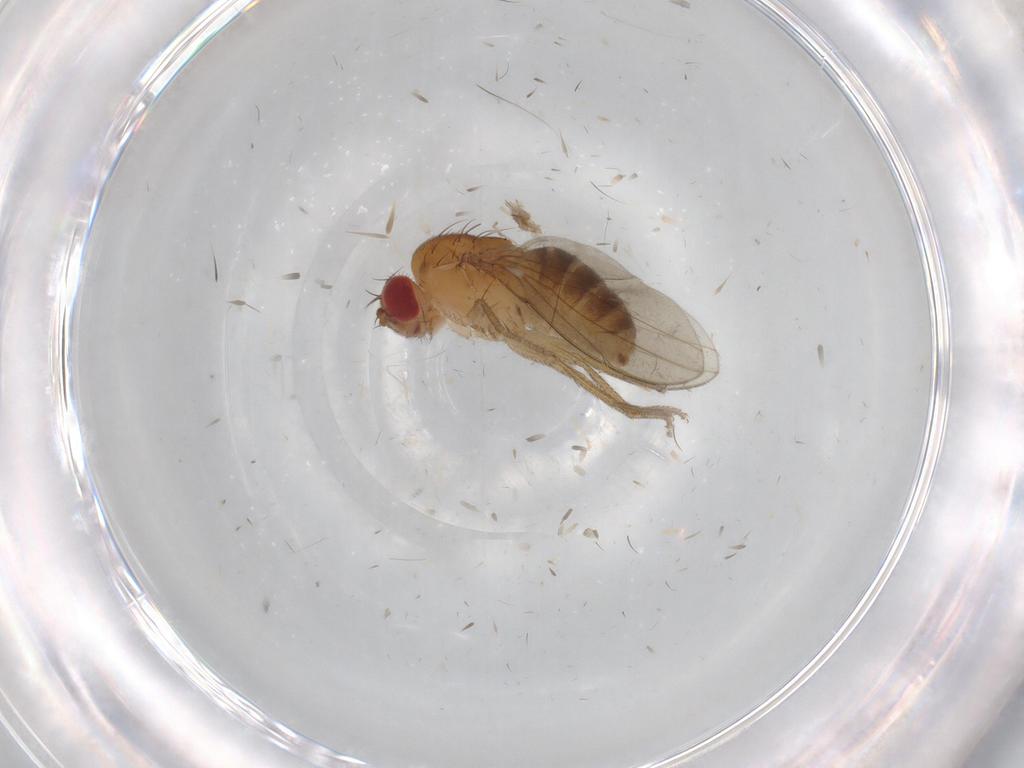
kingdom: Animalia
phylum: Arthropoda
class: Insecta
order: Diptera
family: Drosophilidae
